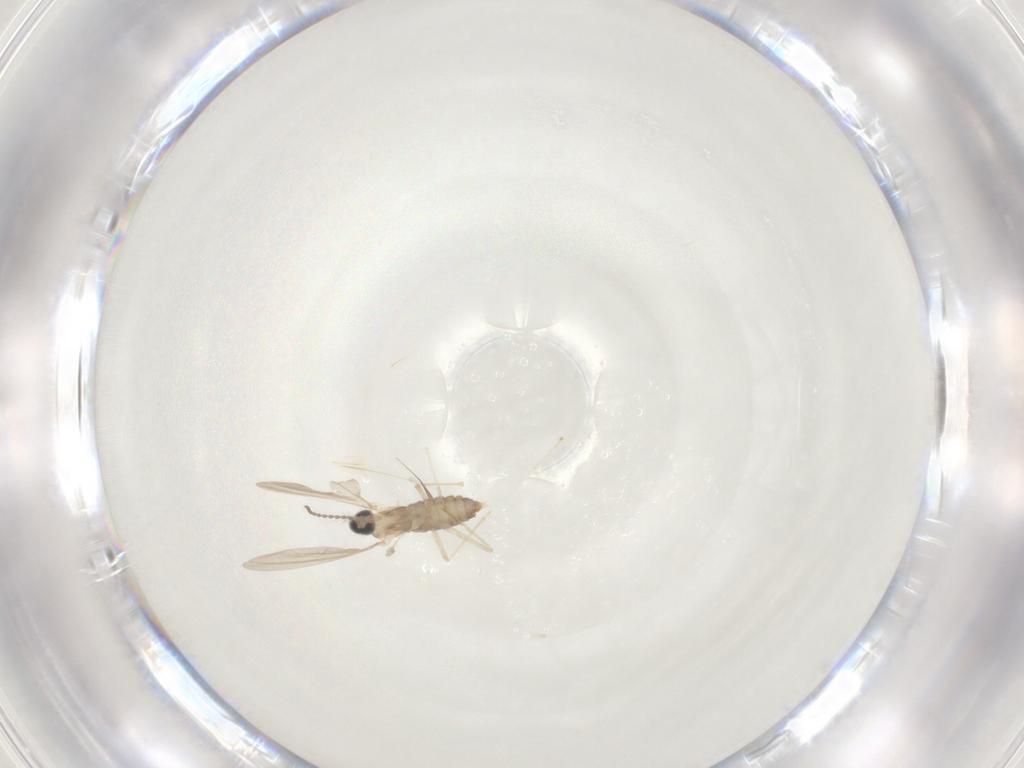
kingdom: Animalia
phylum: Arthropoda
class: Insecta
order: Diptera
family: Cecidomyiidae
